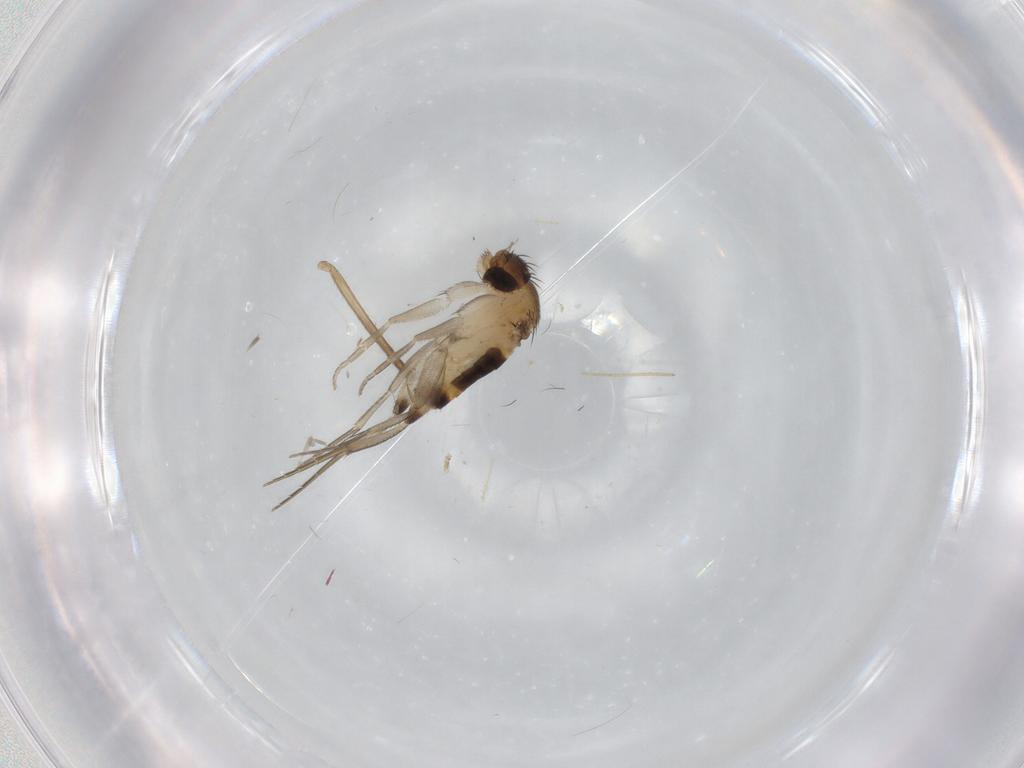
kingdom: Animalia
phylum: Arthropoda
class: Insecta
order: Diptera
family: Phoridae
